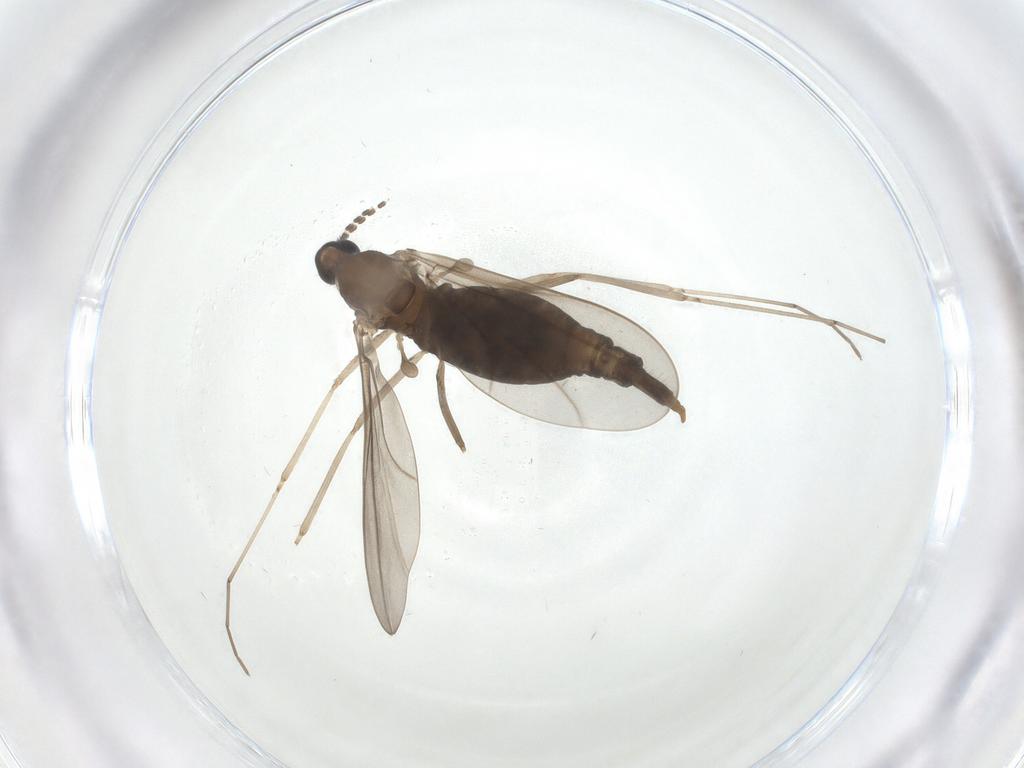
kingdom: Animalia
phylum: Arthropoda
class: Insecta
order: Diptera
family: Cecidomyiidae
